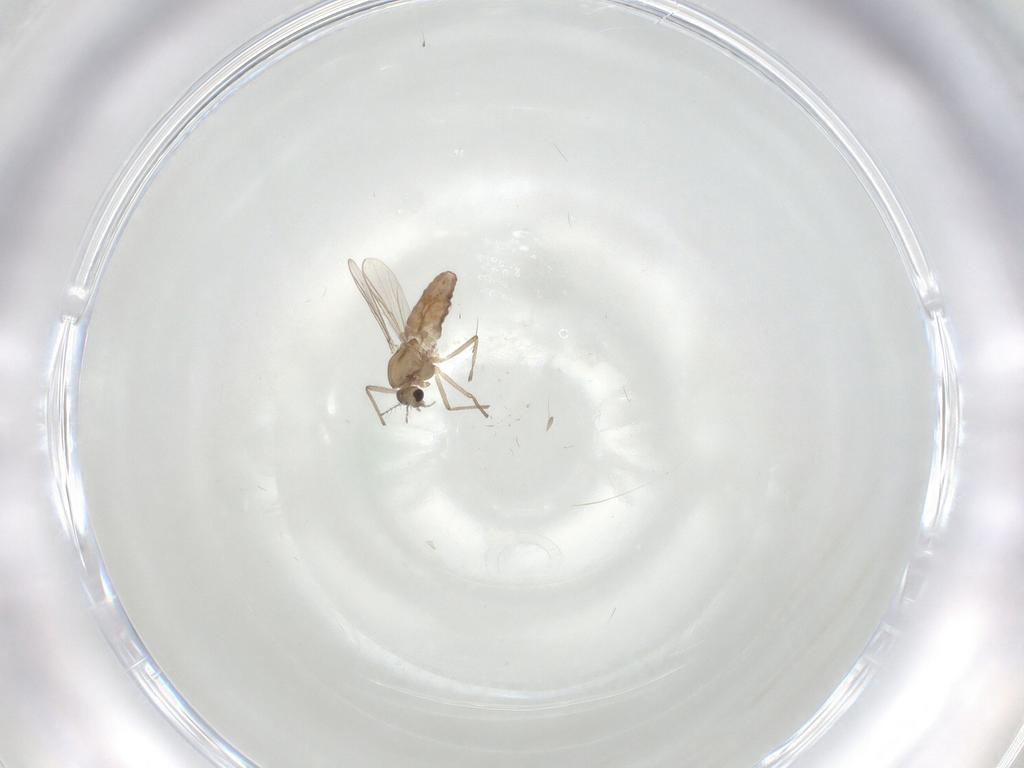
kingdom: Animalia
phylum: Arthropoda
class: Insecta
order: Diptera
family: Chironomidae
